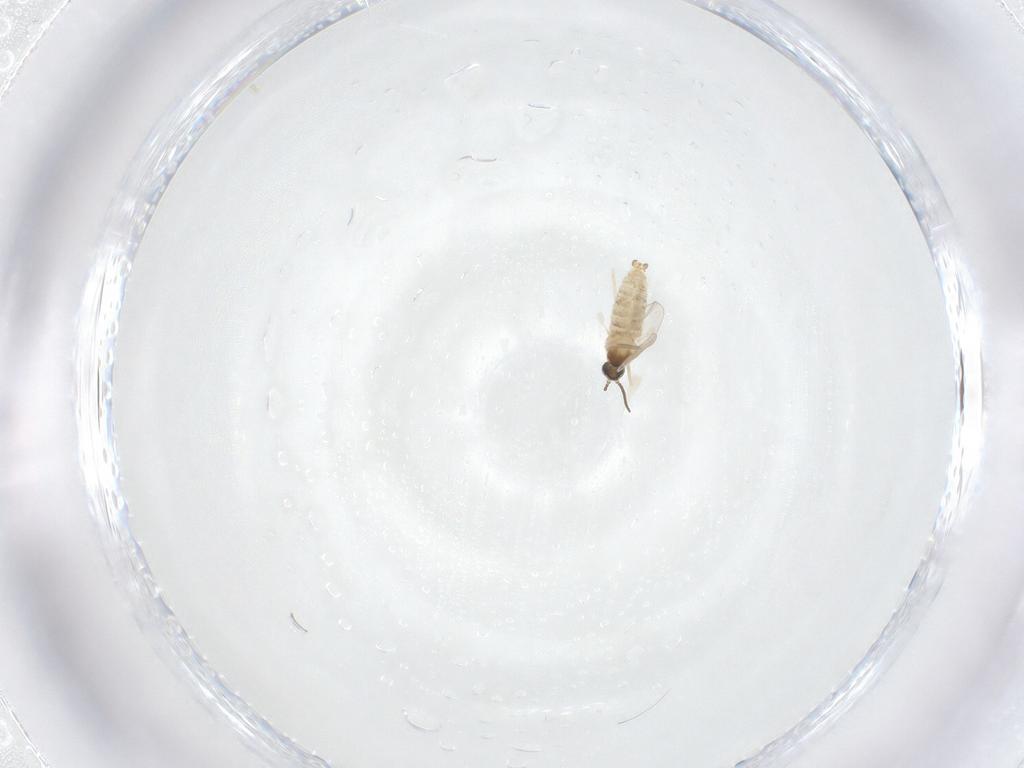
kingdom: Animalia
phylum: Arthropoda
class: Insecta
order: Diptera
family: Cecidomyiidae
